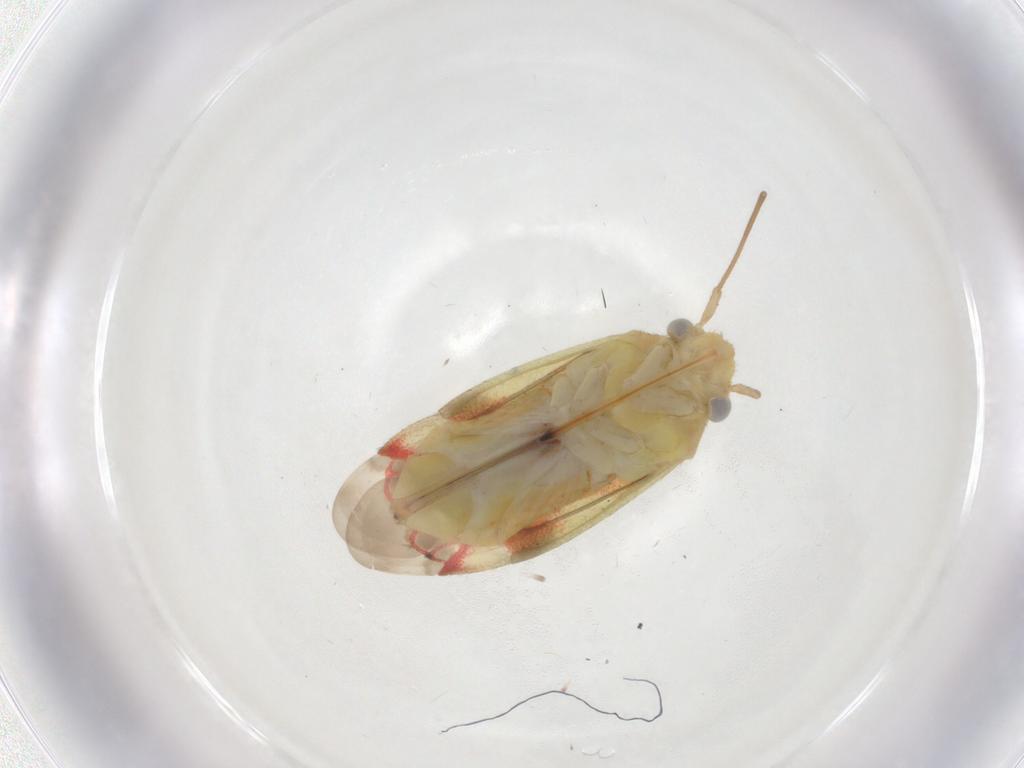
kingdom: Animalia
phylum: Arthropoda
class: Insecta
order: Hemiptera
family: Miridae
